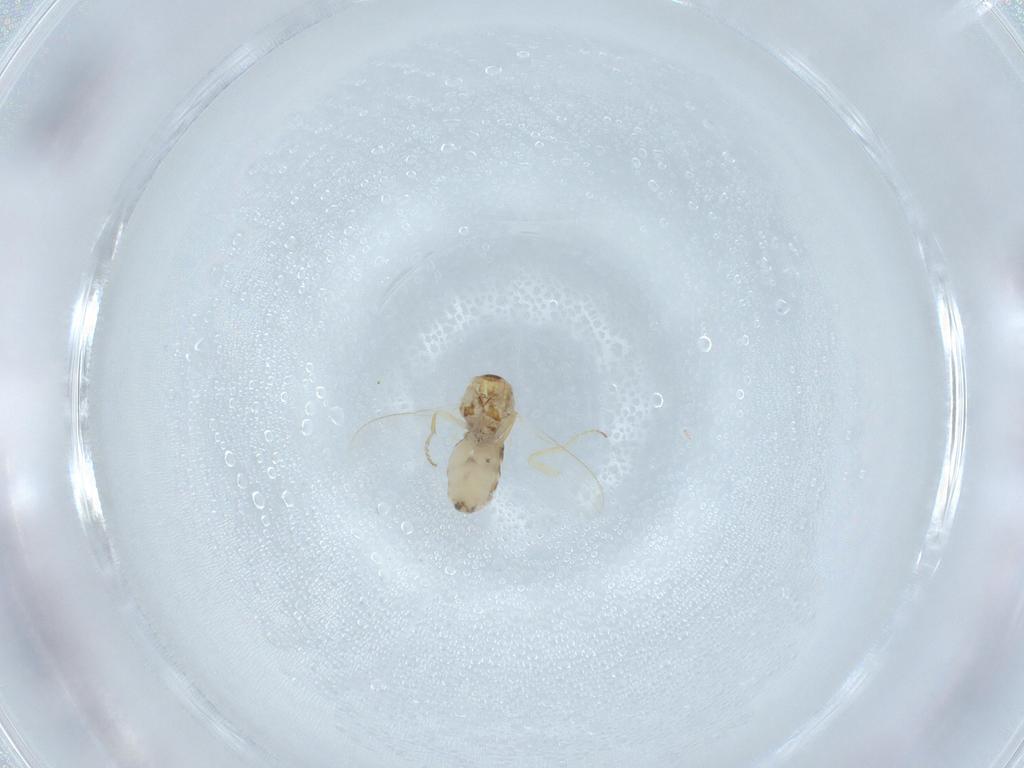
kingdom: Animalia
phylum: Arthropoda
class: Insecta
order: Diptera
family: Chyromyidae
